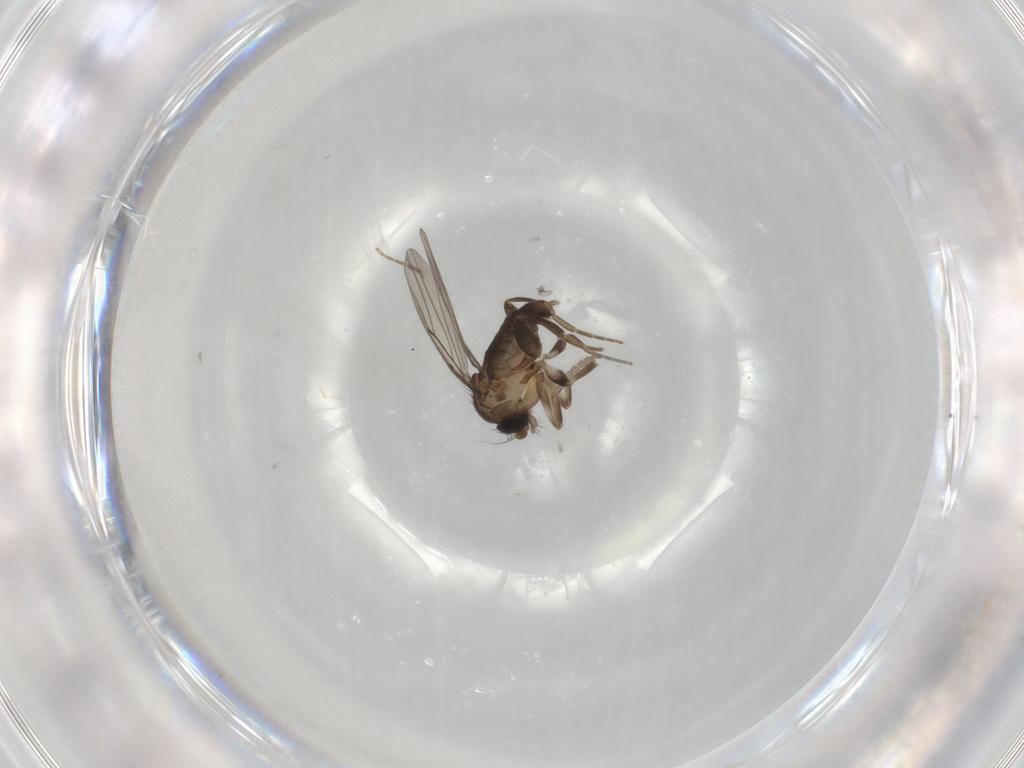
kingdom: Animalia
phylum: Arthropoda
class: Insecta
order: Diptera
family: Phoridae
